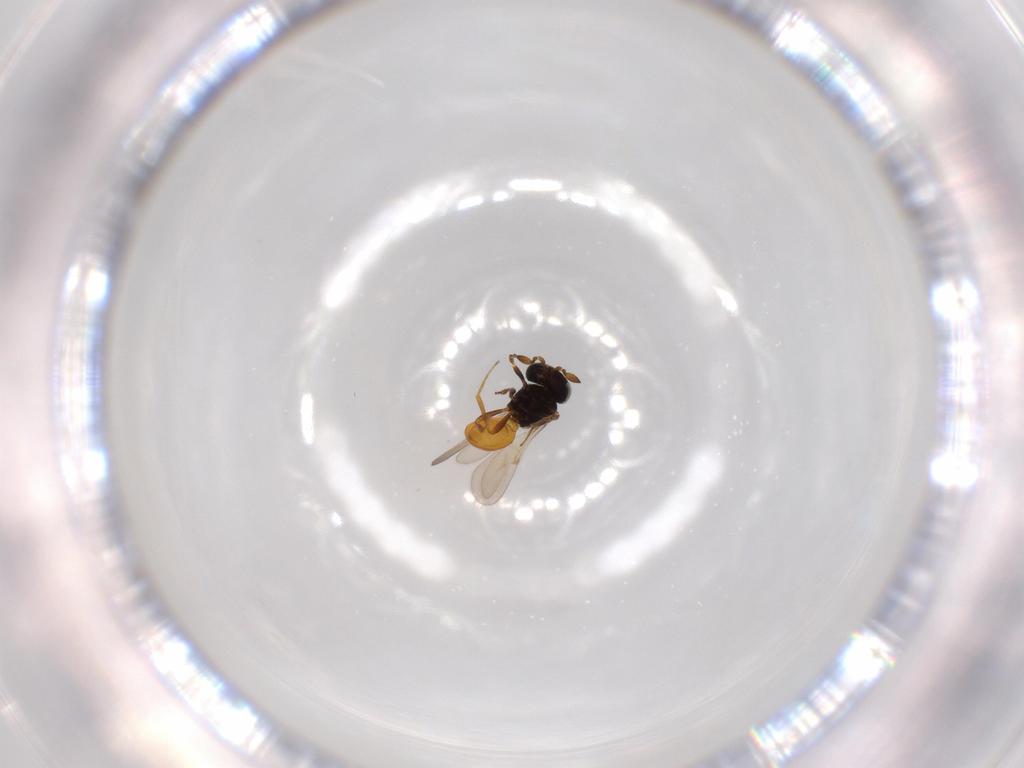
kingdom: Animalia
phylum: Arthropoda
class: Insecta
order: Hymenoptera
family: Scelionidae
